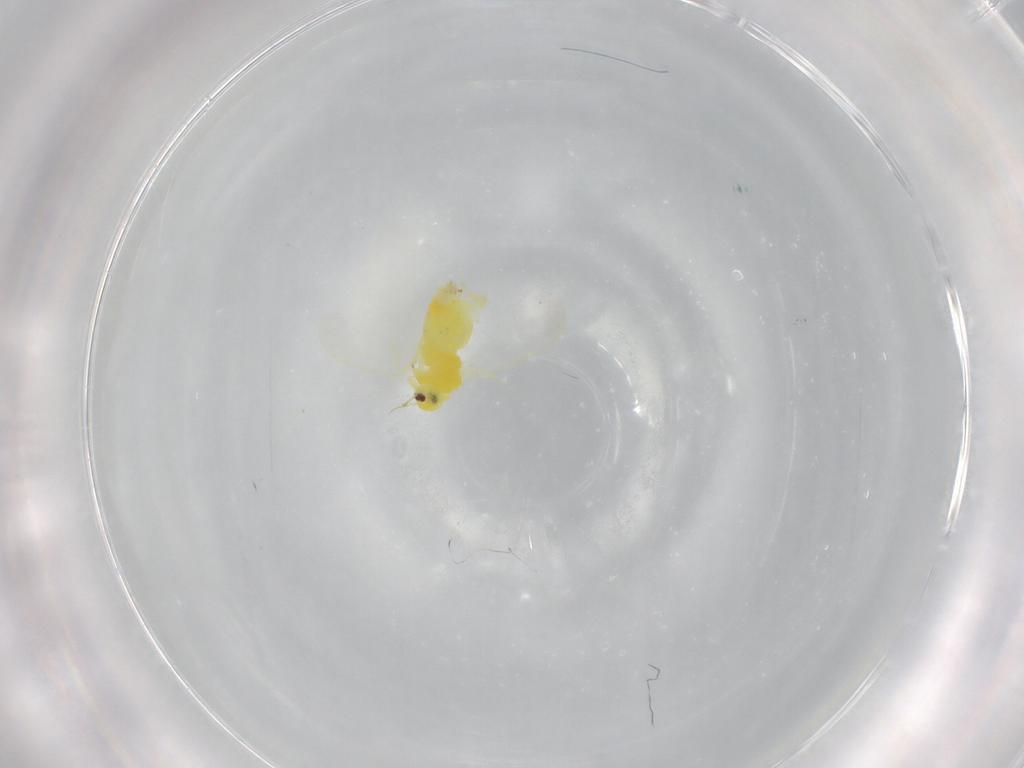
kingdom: Animalia
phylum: Arthropoda
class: Insecta
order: Hemiptera
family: Aleyrodidae
